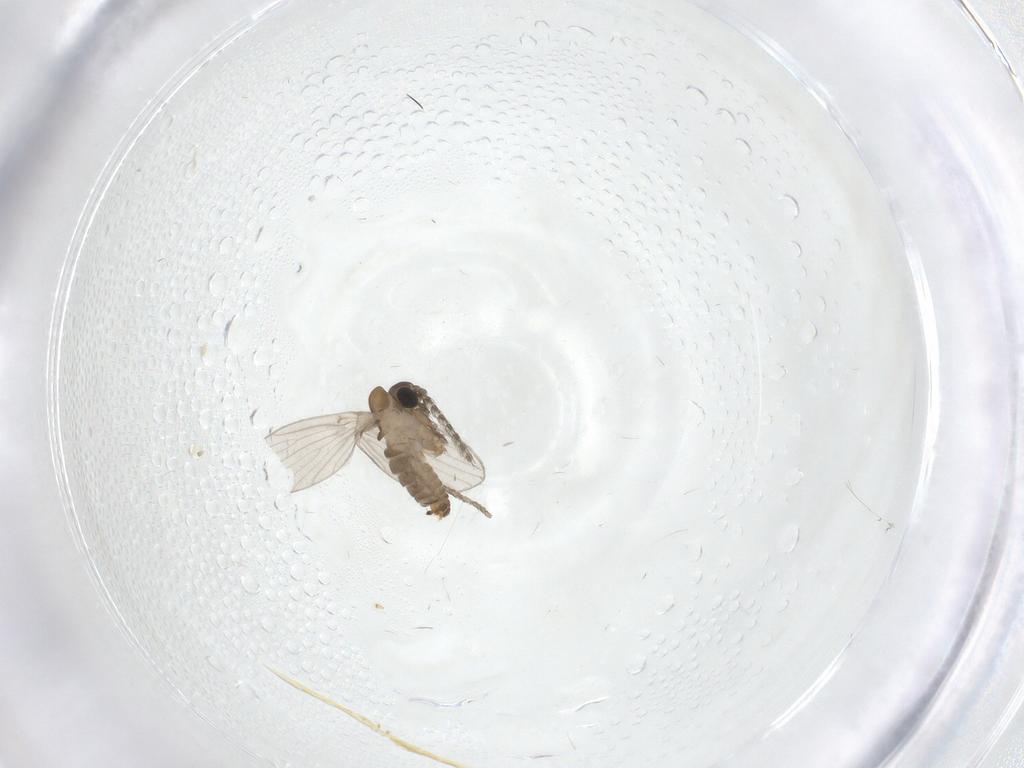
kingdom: Animalia
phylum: Arthropoda
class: Insecta
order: Diptera
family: Psychodidae
